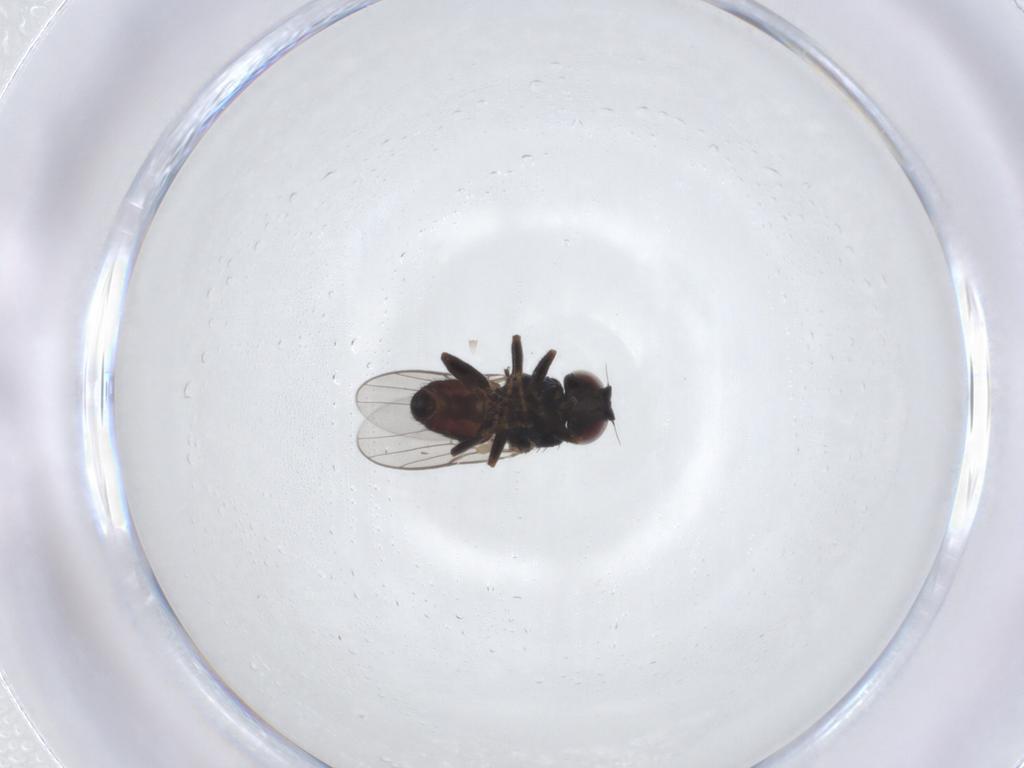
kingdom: Animalia
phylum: Arthropoda
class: Insecta
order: Diptera
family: Chloropidae
